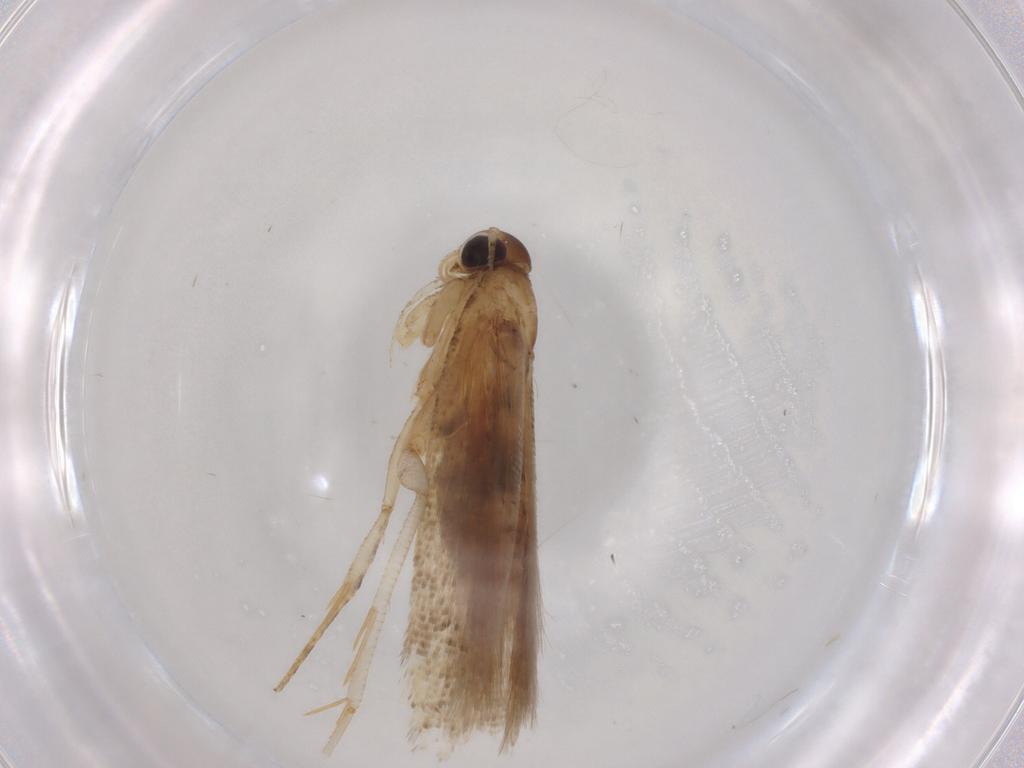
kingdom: Animalia
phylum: Arthropoda
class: Insecta
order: Lepidoptera
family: Gelechiidae
